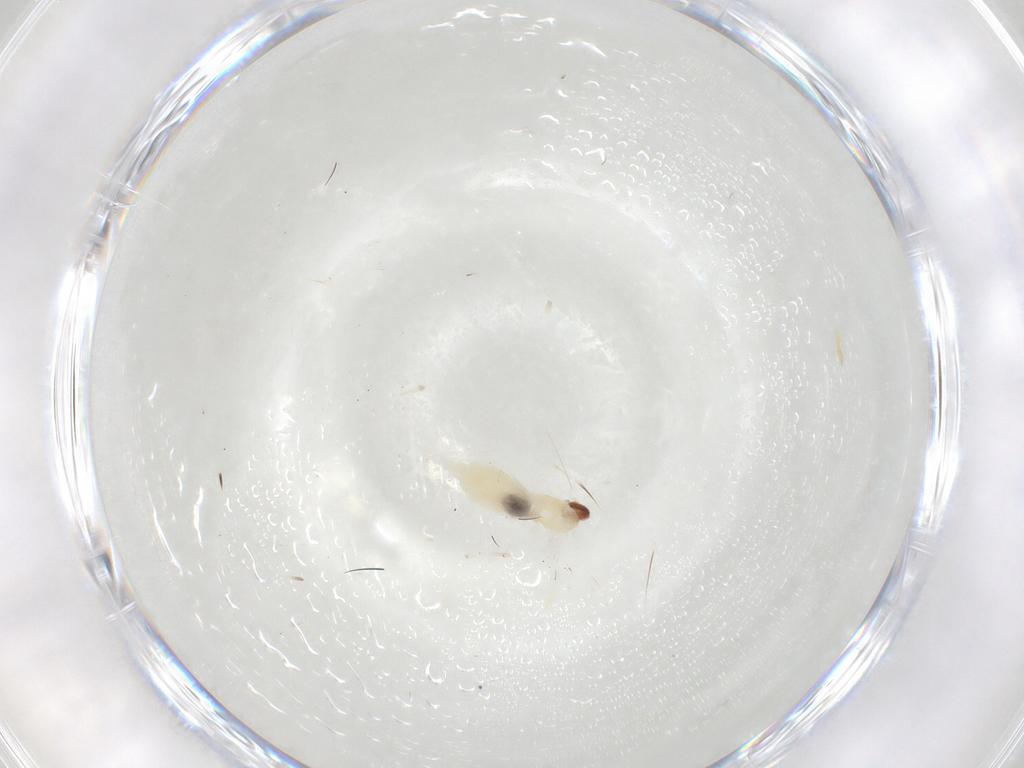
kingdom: Animalia
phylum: Arthropoda
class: Insecta
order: Diptera
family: Cecidomyiidae
